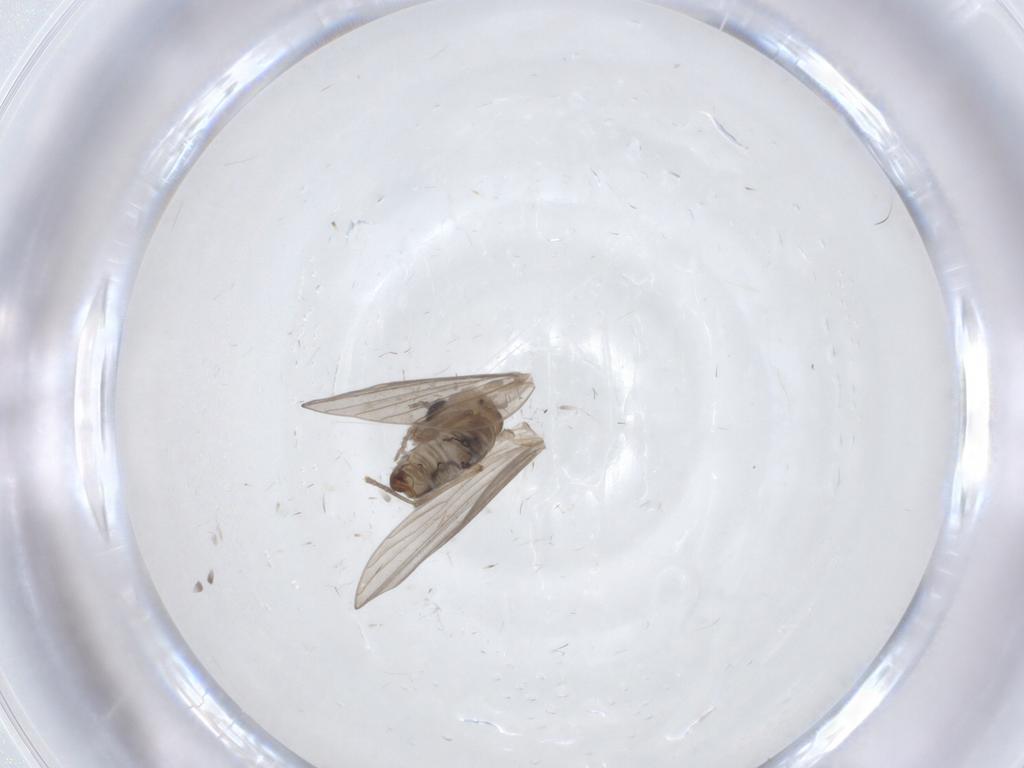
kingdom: Animalia
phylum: Arthropoda
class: Insecta
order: Diptera
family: Psychodidae
